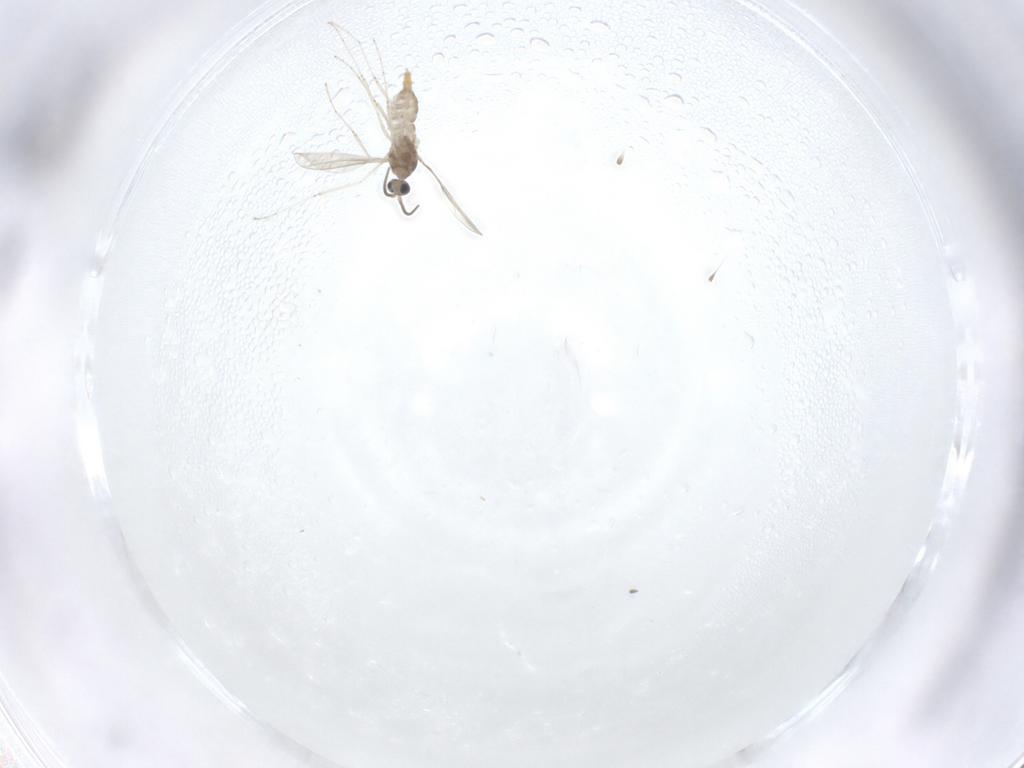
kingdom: Animalia
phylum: Arthropoda
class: Insecta
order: Diptera
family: Cecidomyiidae
